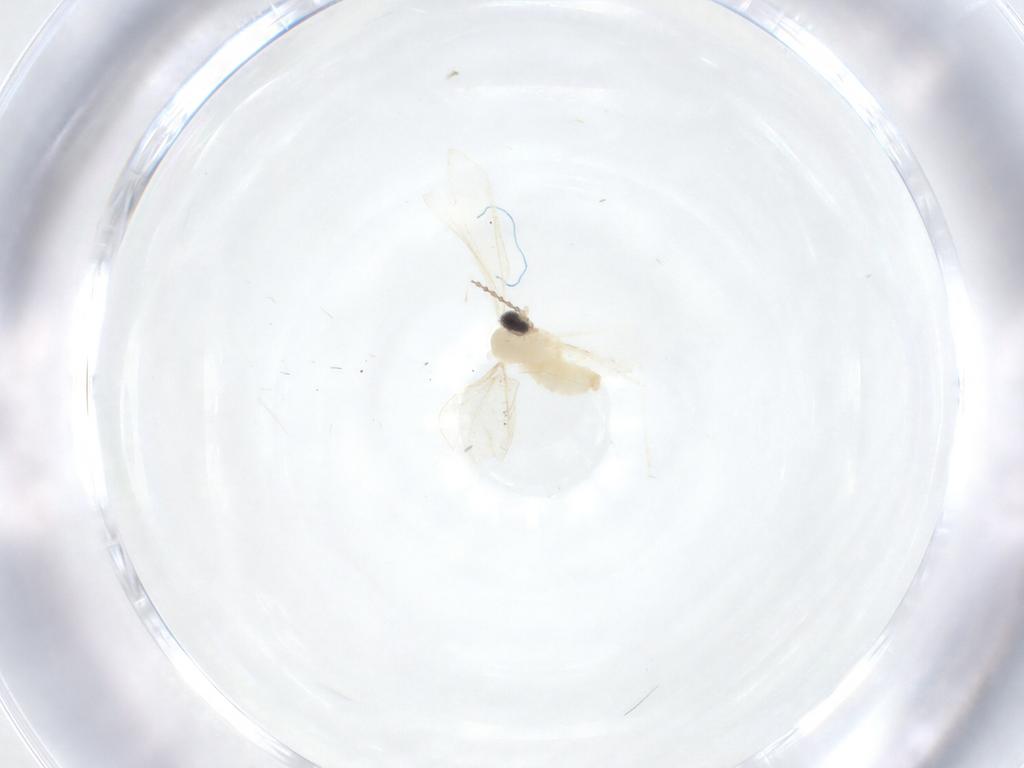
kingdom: Animalia
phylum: Arthropoda
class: Insecta
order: Diptera
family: Cecidomyiidae
